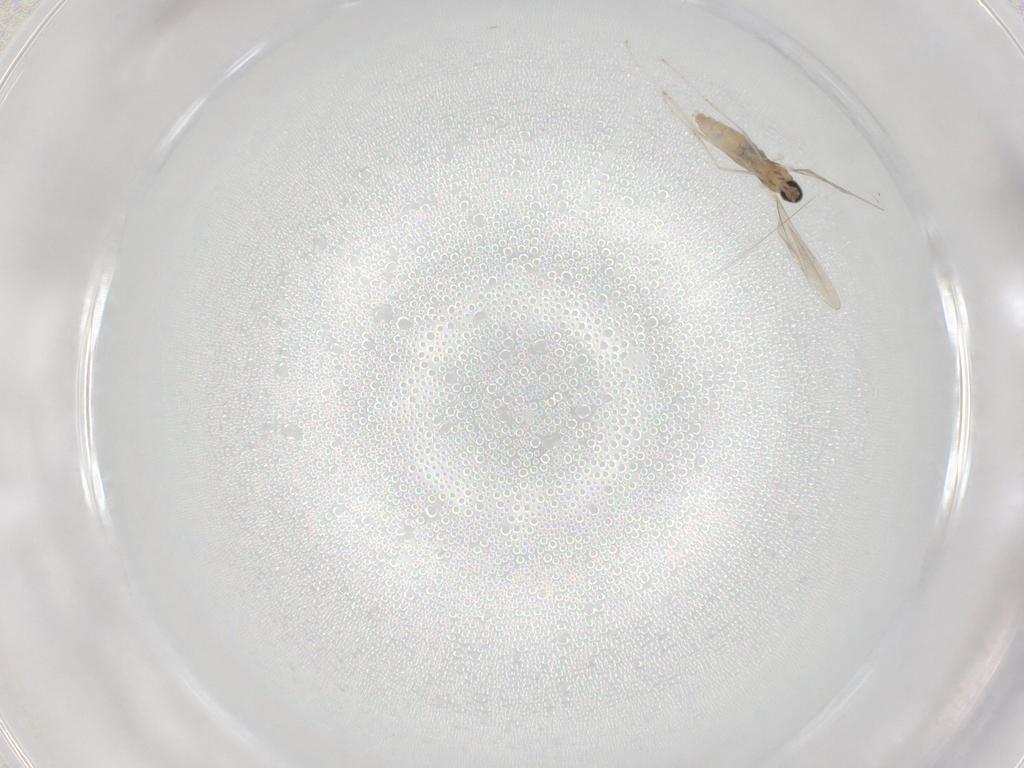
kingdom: Animalia
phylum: Arthropoda
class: Insecta
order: Diptera
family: Cecidomyiidae
